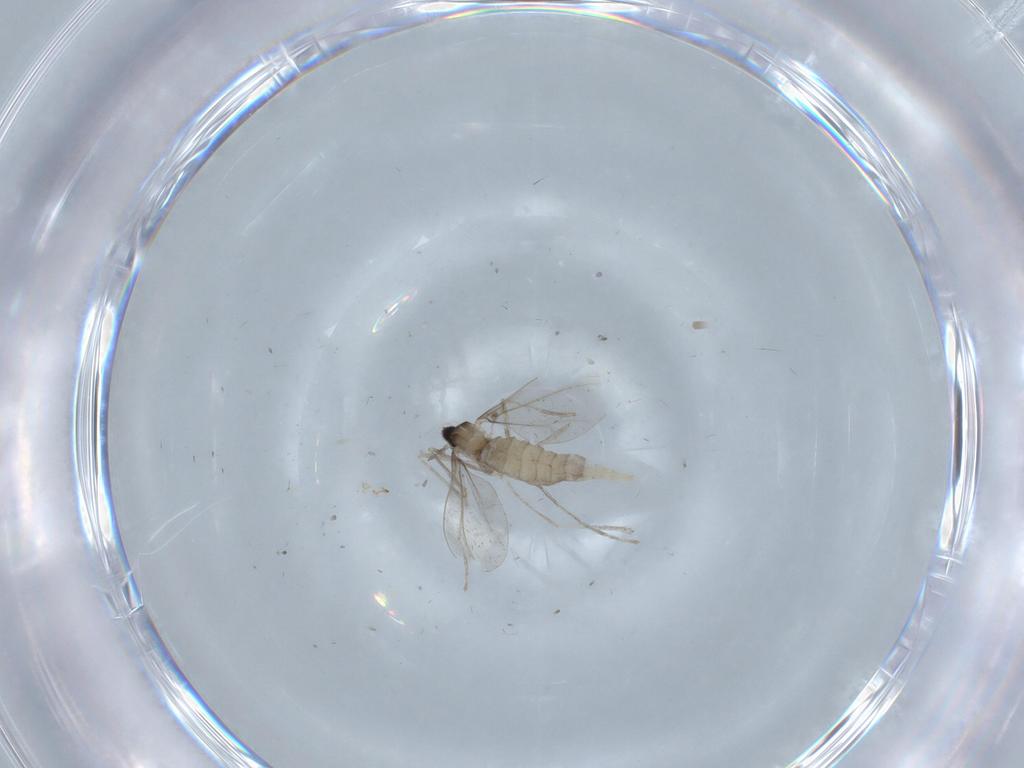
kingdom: Animalia
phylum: Arthropoda
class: Insecta
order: Diptera
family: Cecidomyiidae
